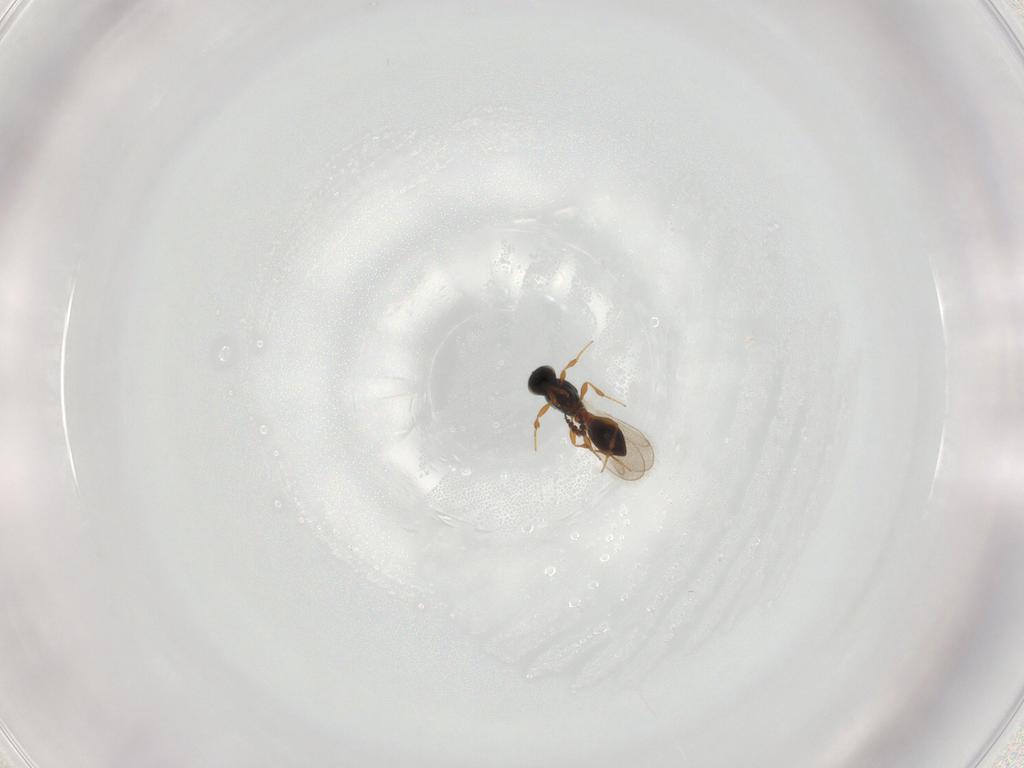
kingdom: Animalia
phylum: Arthropoda
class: Insecta
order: Hymenoptera
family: Platygastridae
